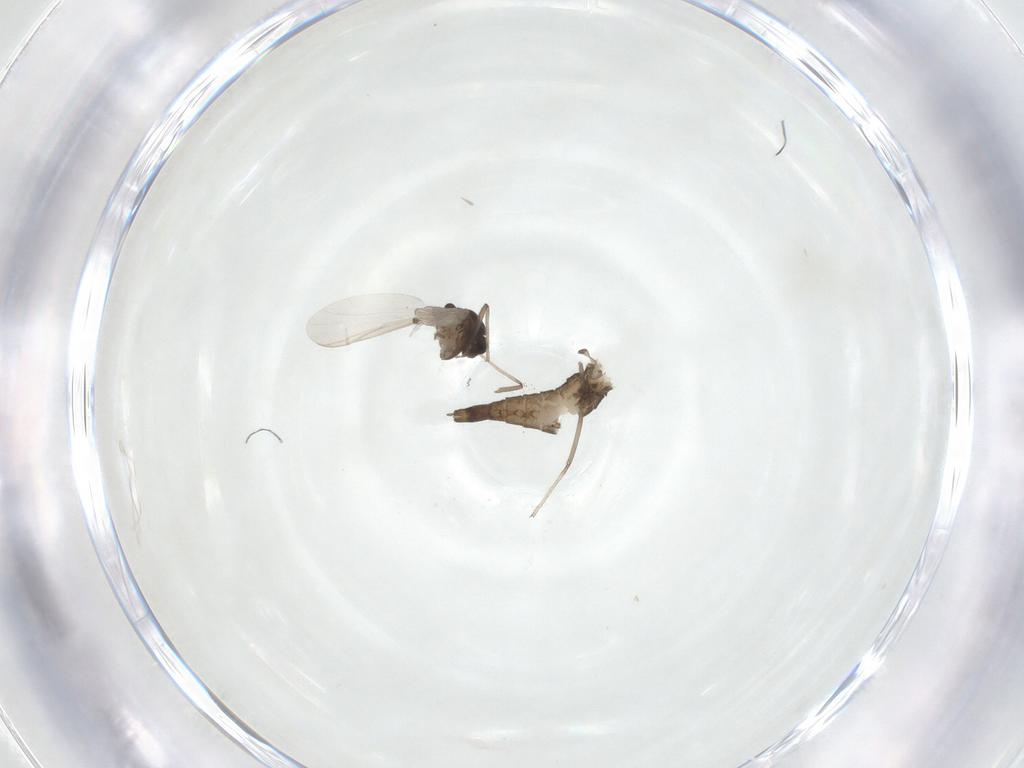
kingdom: Animalia
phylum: Arthropoda
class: Insecta
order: Diptera
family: Chironomidae
